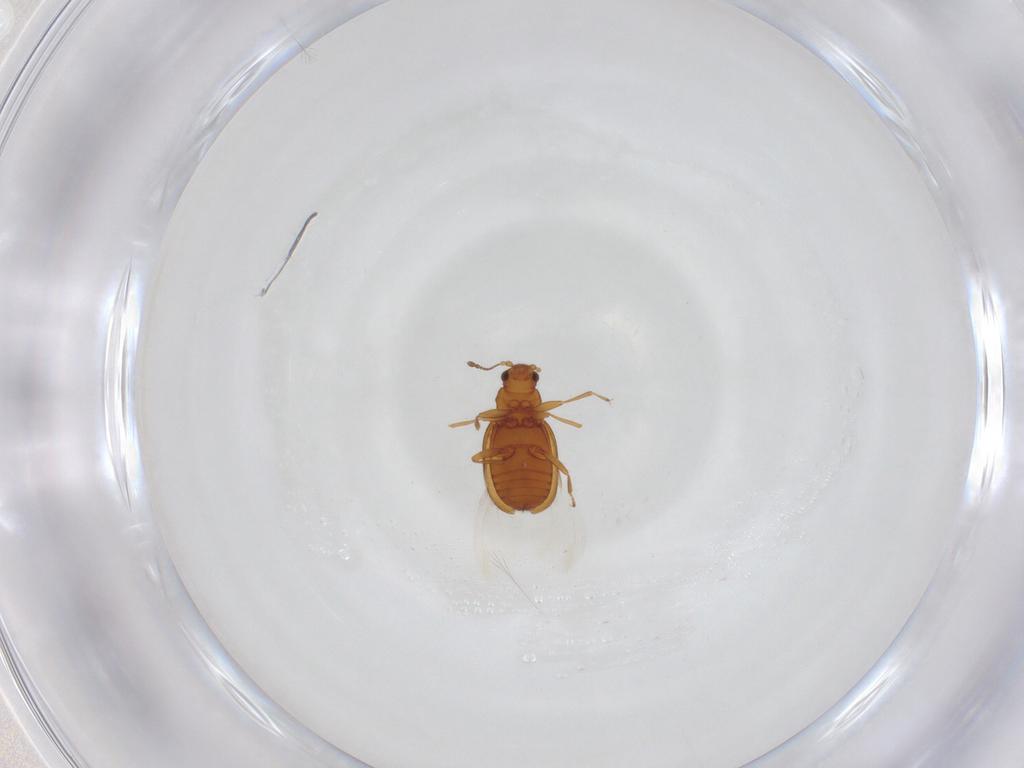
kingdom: Animalia
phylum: Arthropoda
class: Insecta
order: Coleoptera
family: Latridiidae
